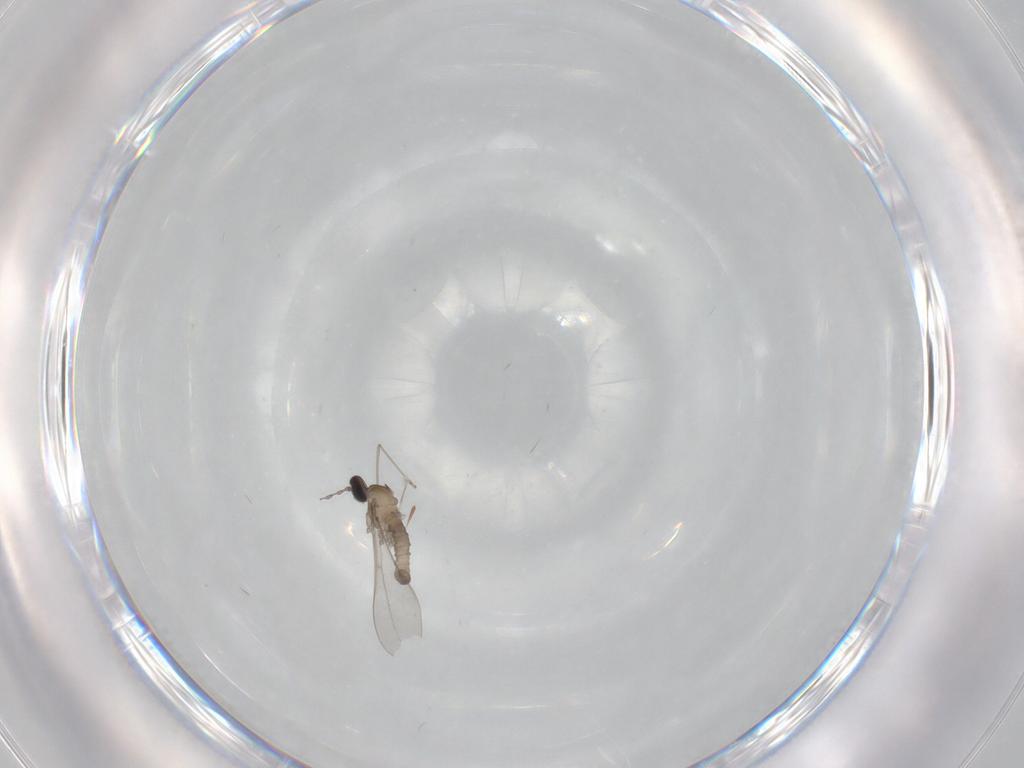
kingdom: Animalia
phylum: Arthropoda
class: Insecta
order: Diptera
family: Cecidomyiidae
